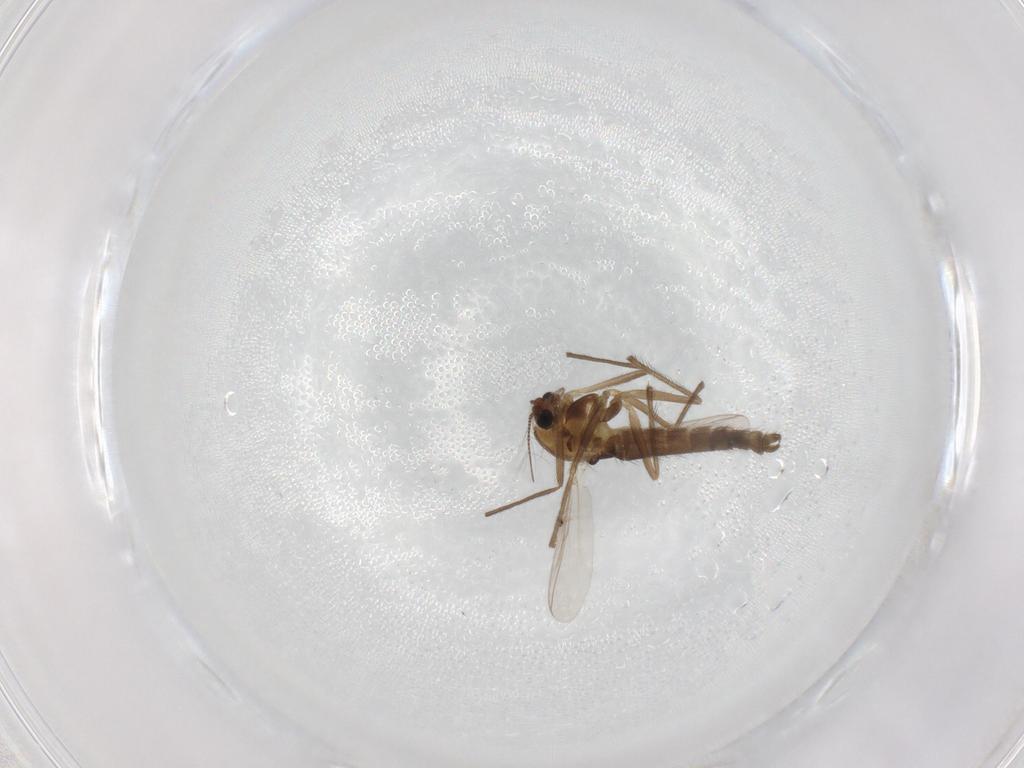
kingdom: Animalia
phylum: Arthropoda
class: Insecta
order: Diptera
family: Chironomidae
